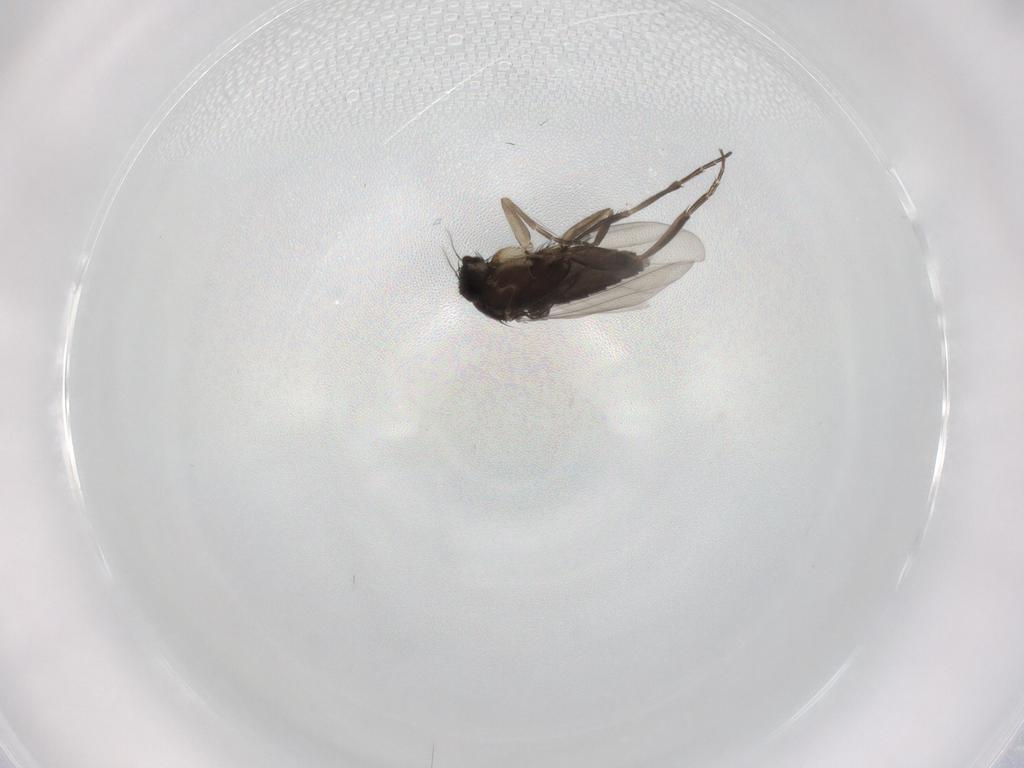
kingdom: Animalia
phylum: Arthropoda
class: Insecta
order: Diptera
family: Phoridae
